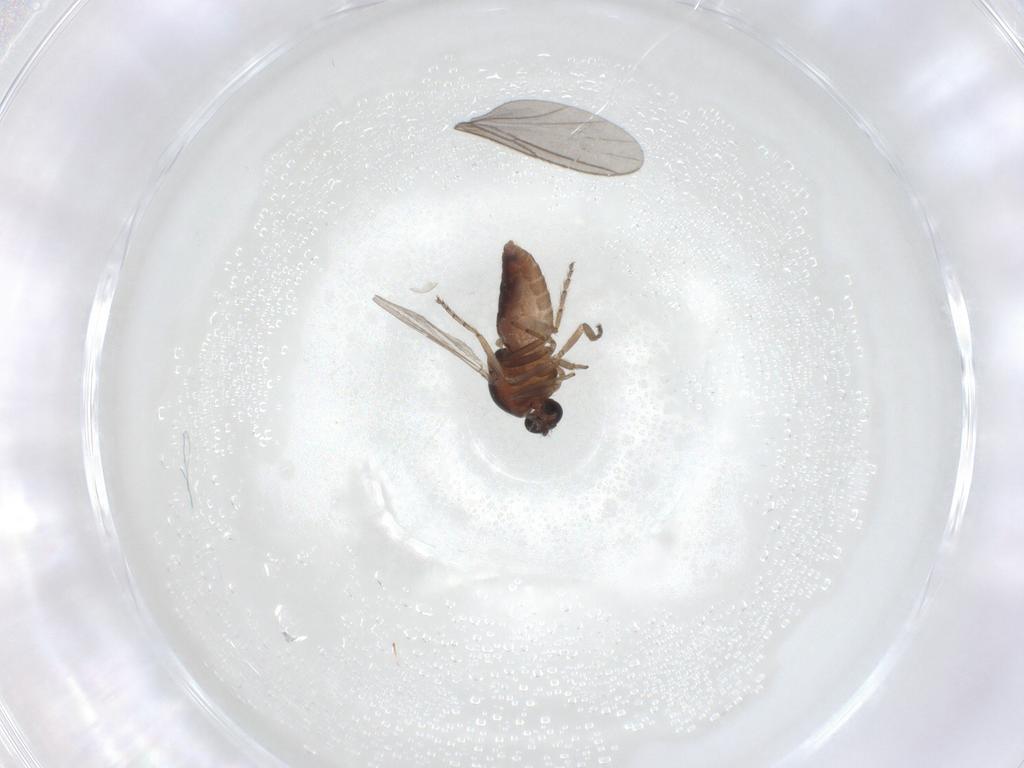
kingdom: Animalia
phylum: Arthropoda
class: Insecta
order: Diptera
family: Ceratopogonidae
